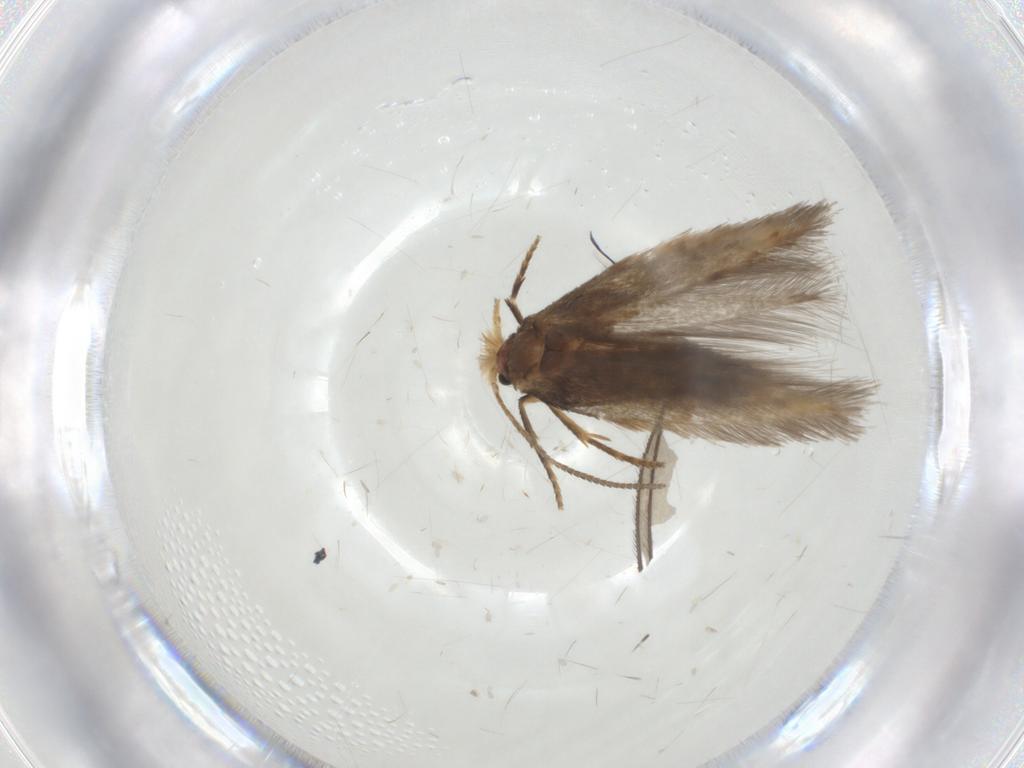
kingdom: Animalia
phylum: Arthropoda
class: Insecta
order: Lepidoptera
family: Nepticulidae
